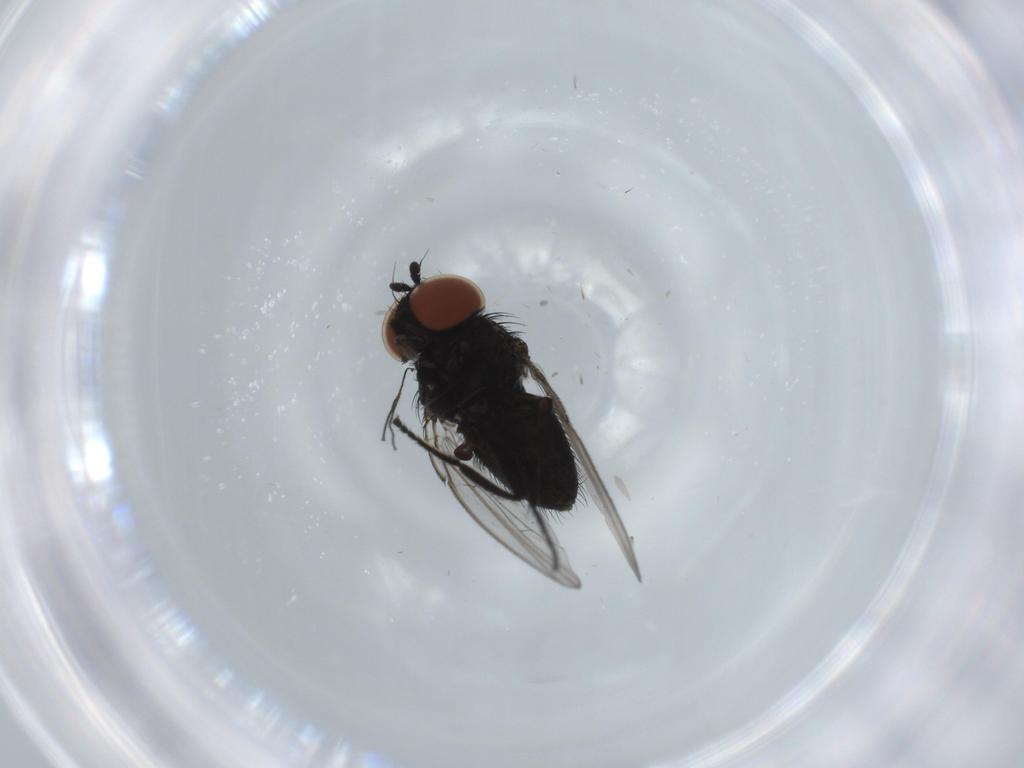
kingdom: Animalia
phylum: Arthropoda
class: Insecta
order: Diptera
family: Milichiidae
